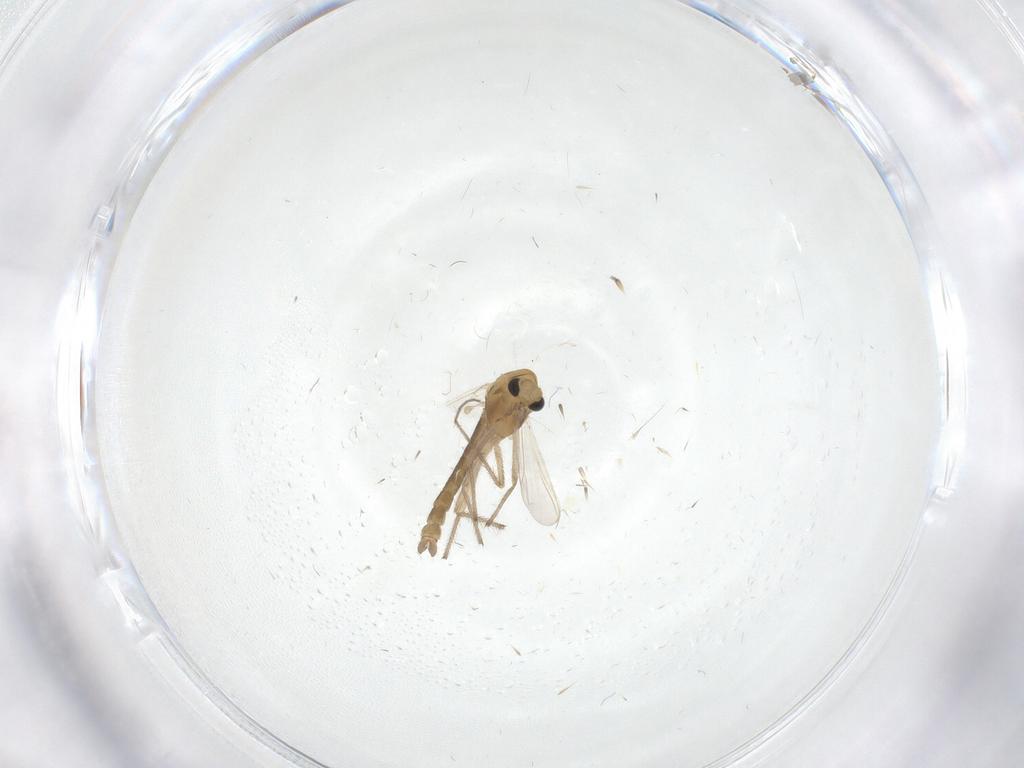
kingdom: Animalia
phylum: Arthropoda
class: Insecta
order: Diptera
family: Chironomidae
